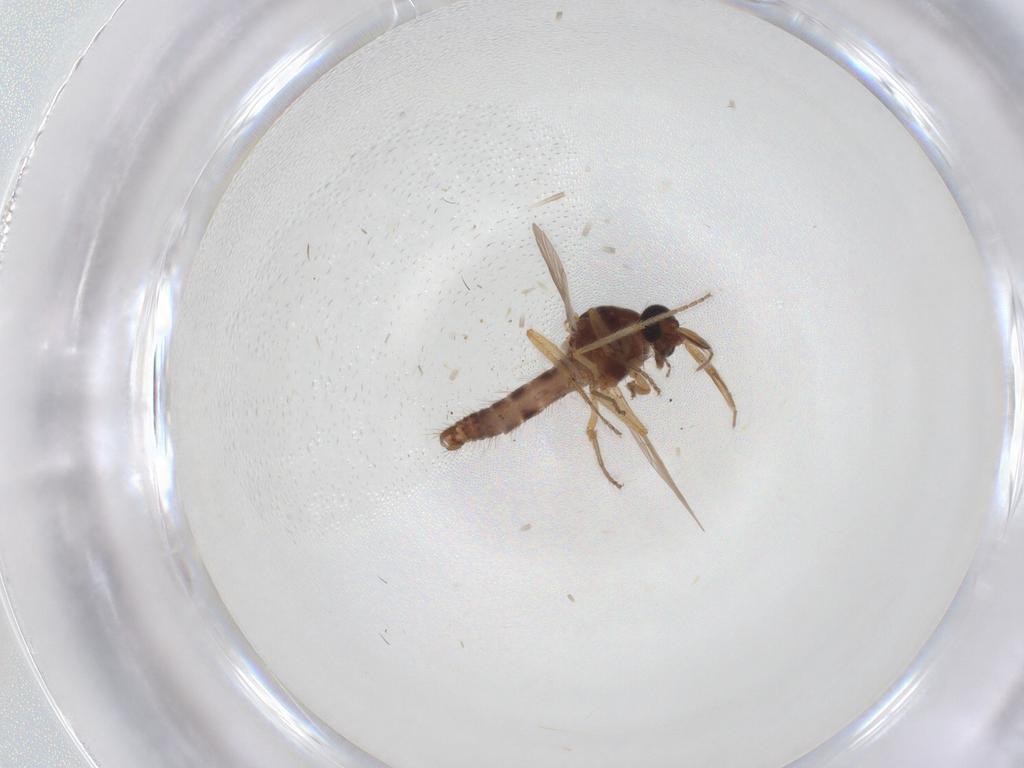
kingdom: Animalia
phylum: Arthropoda
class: Insecta
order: Diptera
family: Ceratopogonidae
